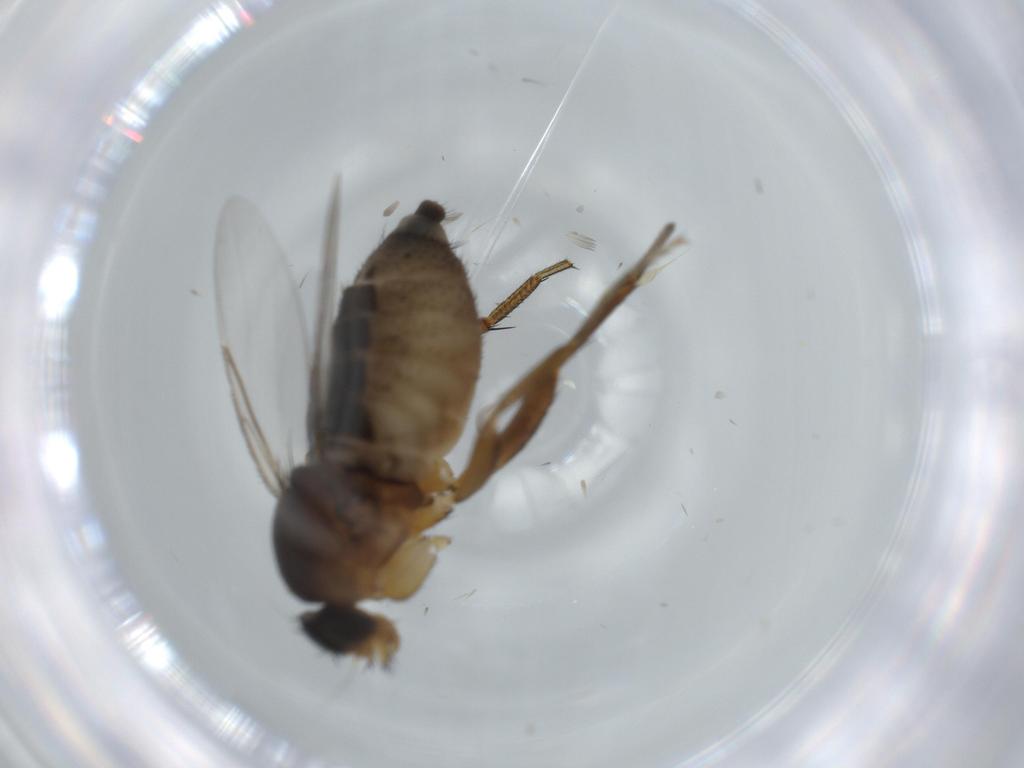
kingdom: Animalia
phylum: Arthropoda
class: Insecta
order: Diptera
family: Phoridae
